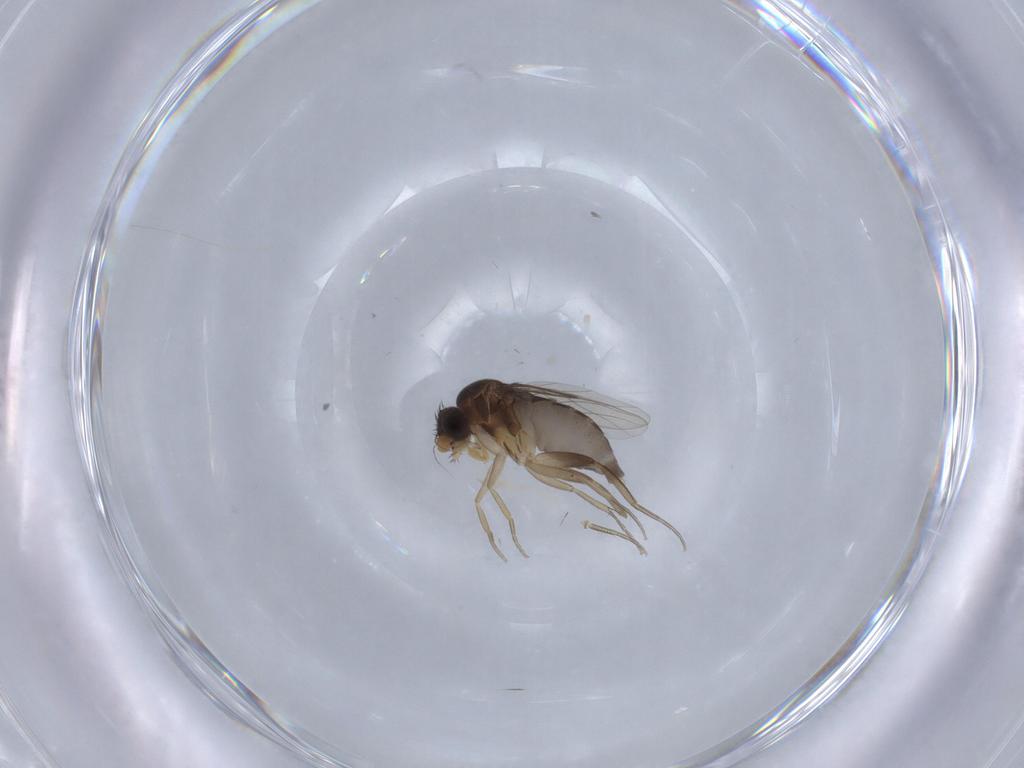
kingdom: Animalia
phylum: Arthropoda
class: Insecta
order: Diptera
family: Phoridae
